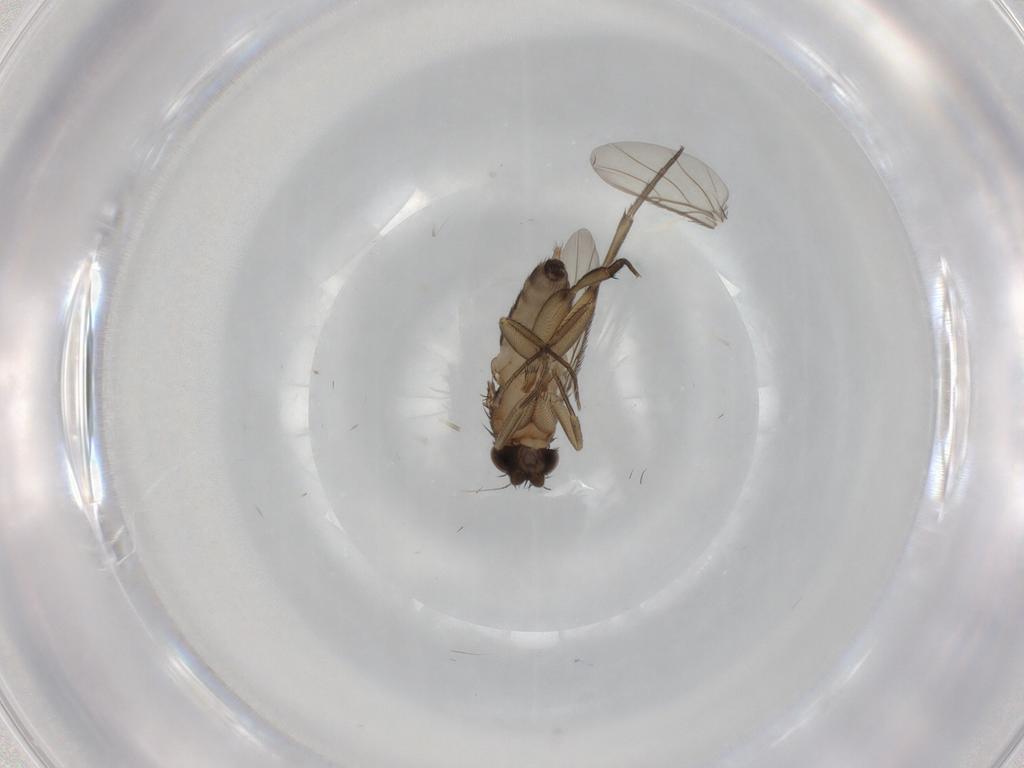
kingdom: Animalia
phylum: Arthropoda
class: Insecta
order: Diptera
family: Phoridae
